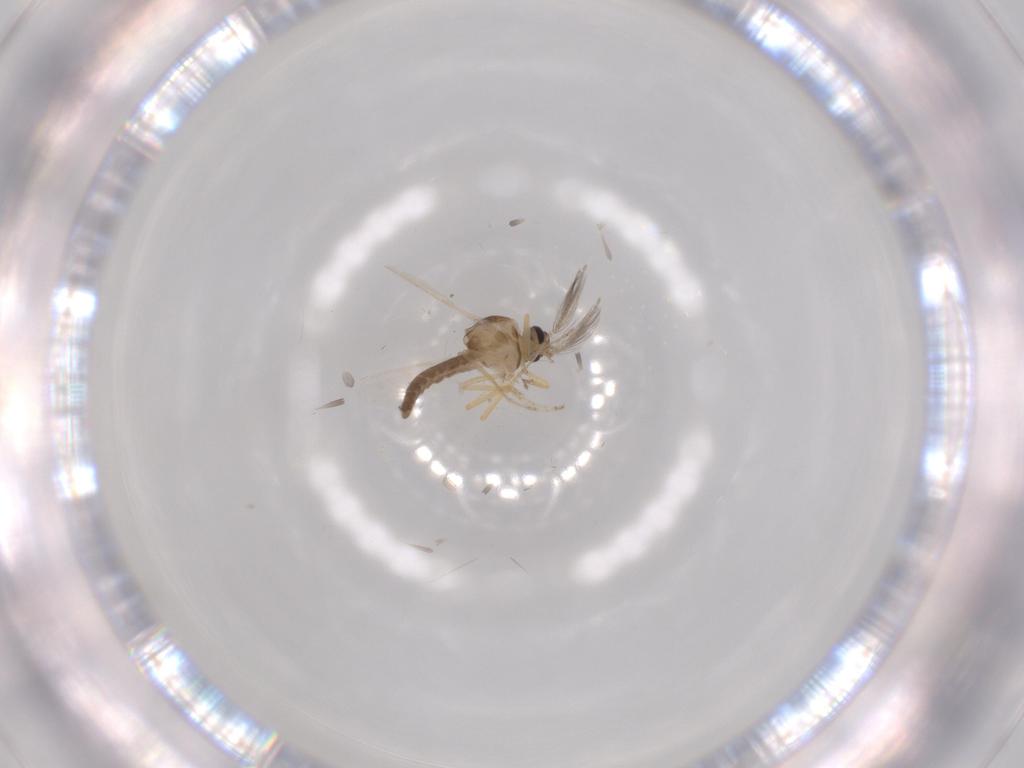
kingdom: Animalia
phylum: Arthropoda
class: Insecta
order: Diptera
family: Ceratopogonidae
